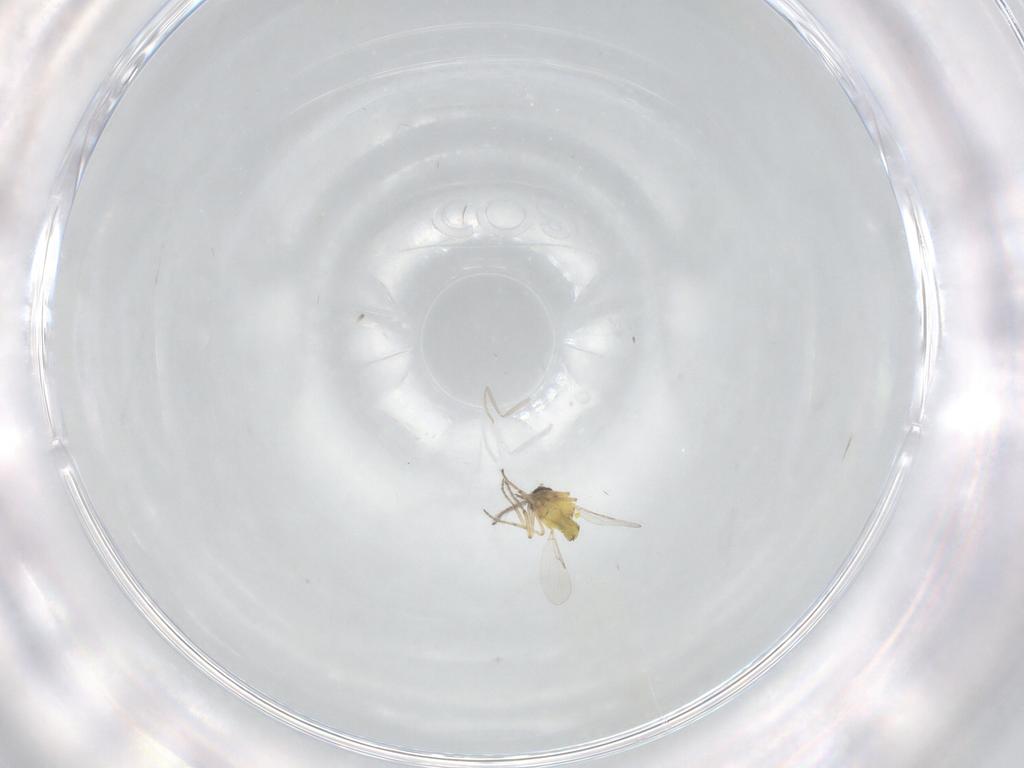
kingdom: Animalia
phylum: Arthropoda
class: Insecta
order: Diptera
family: Ceratopogonidae
